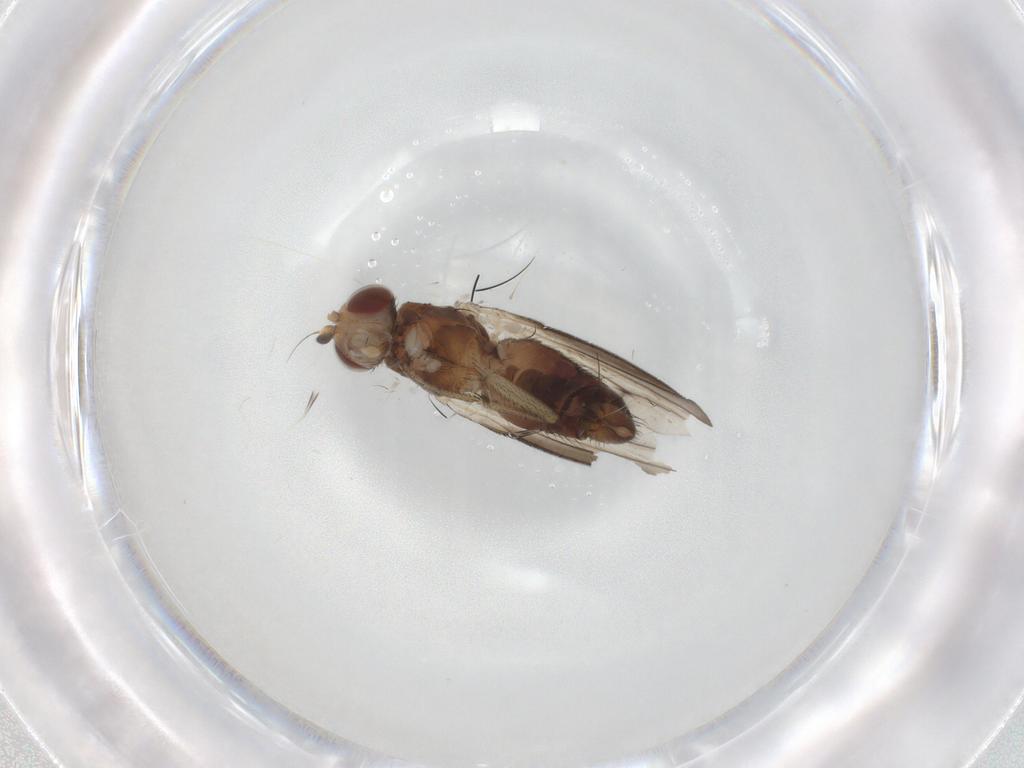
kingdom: Animalia
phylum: Arthropoda
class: Insecta
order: Diptera
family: Heleomyzidae
